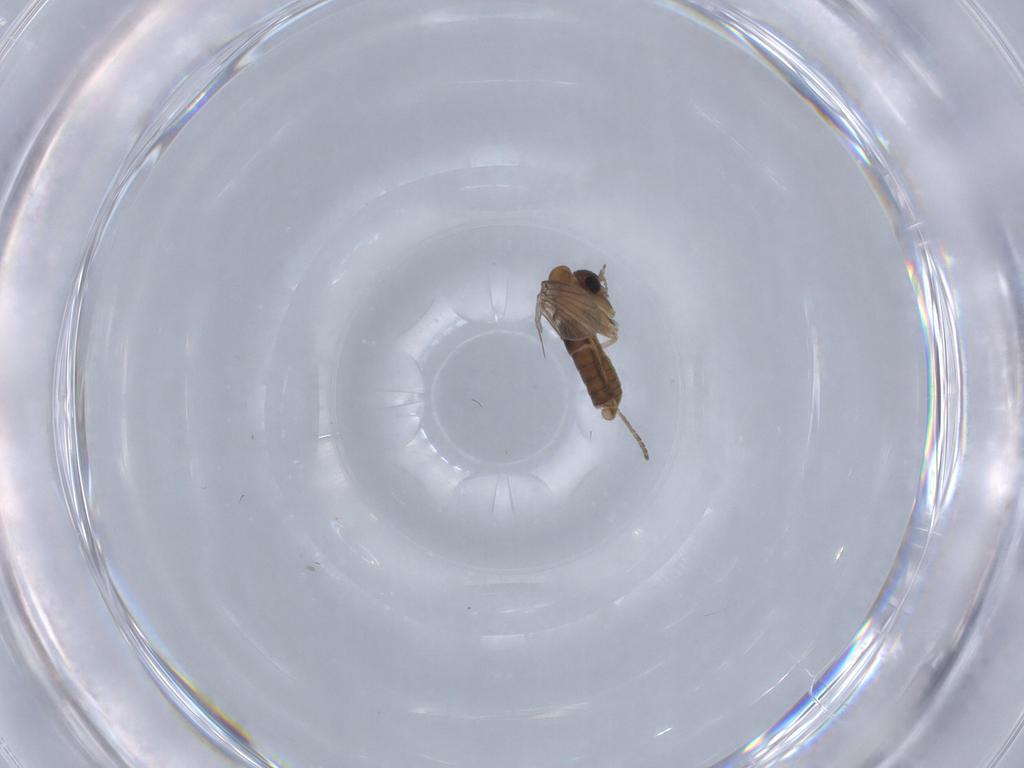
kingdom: Animalia
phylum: Arthropoda
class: Insecta
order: Diptera
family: Psychodidae
